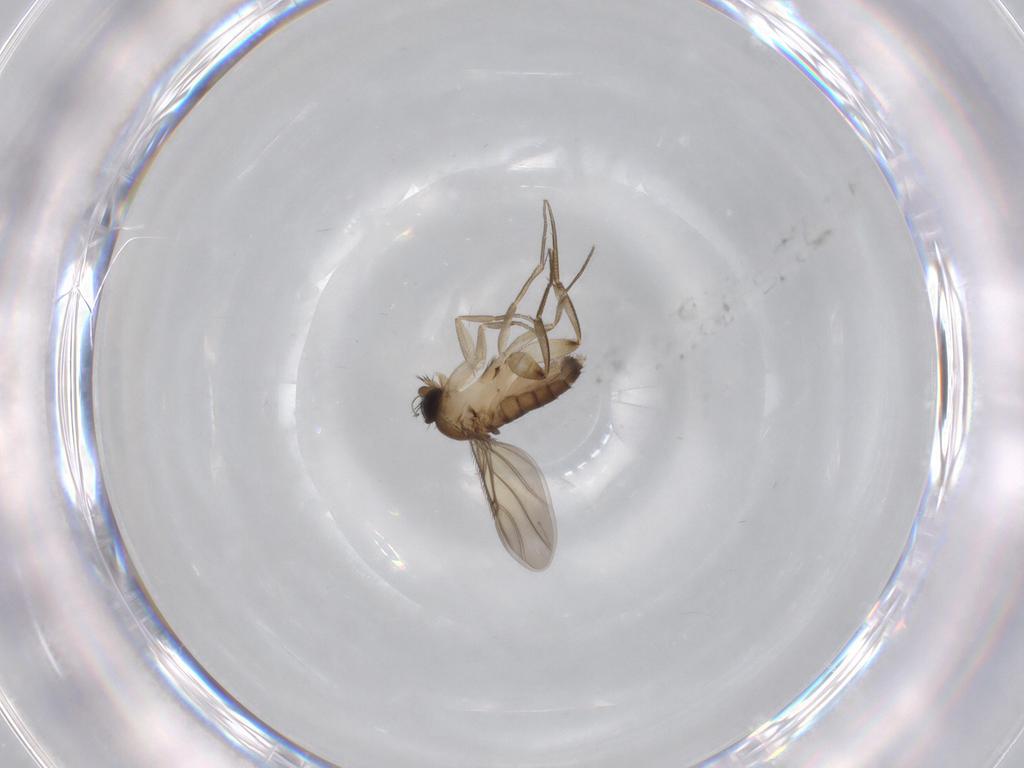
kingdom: Animalia
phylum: Arthropoda
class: Insecta
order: Diptera
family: Phoridae
